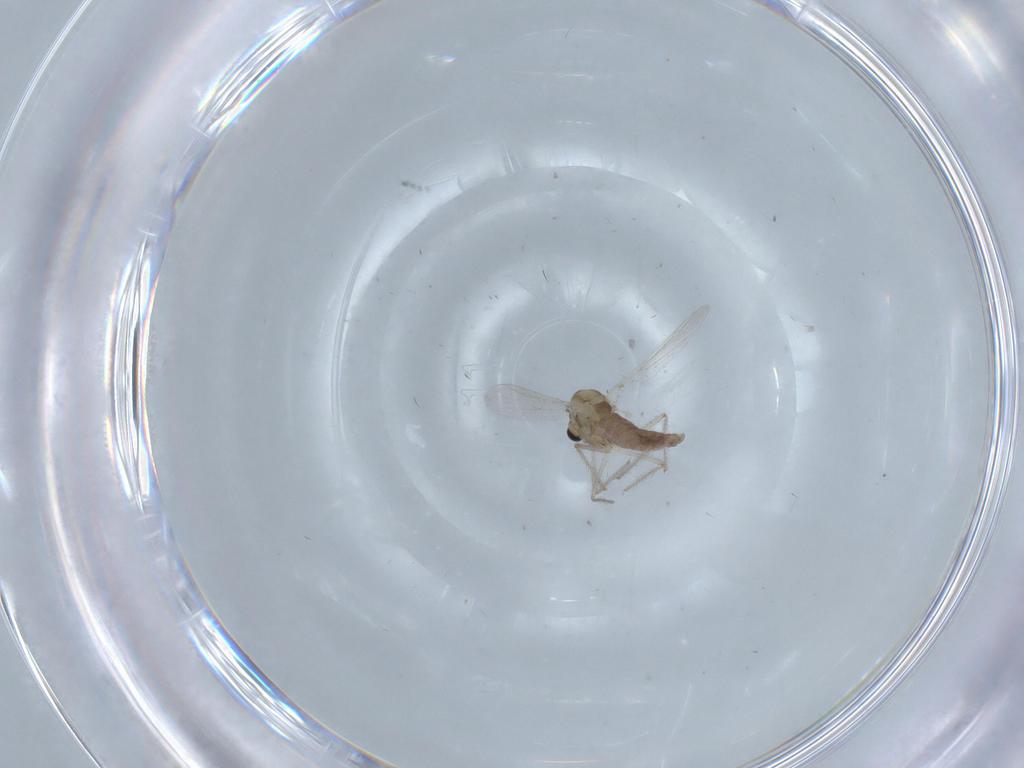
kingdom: Animalia
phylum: Arthropoda
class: Insecta
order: Diptera
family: Chironomidae
